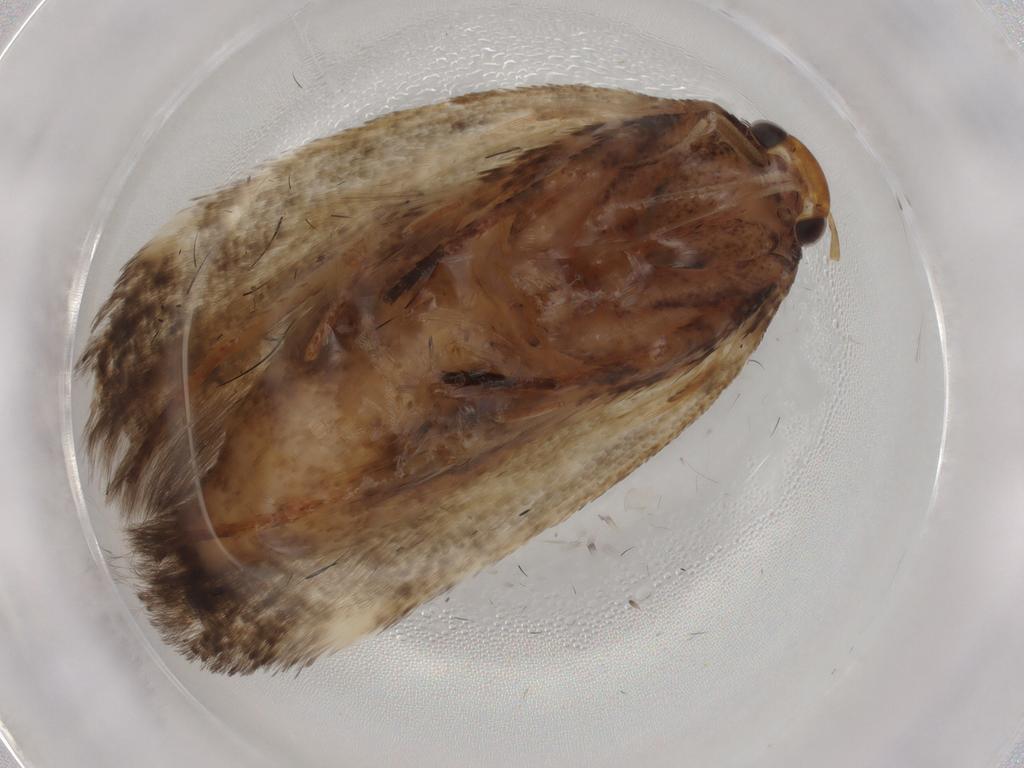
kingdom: Animalia
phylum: Arthropoda
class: Insecta
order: Lepidoptera
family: Gelechiidae
